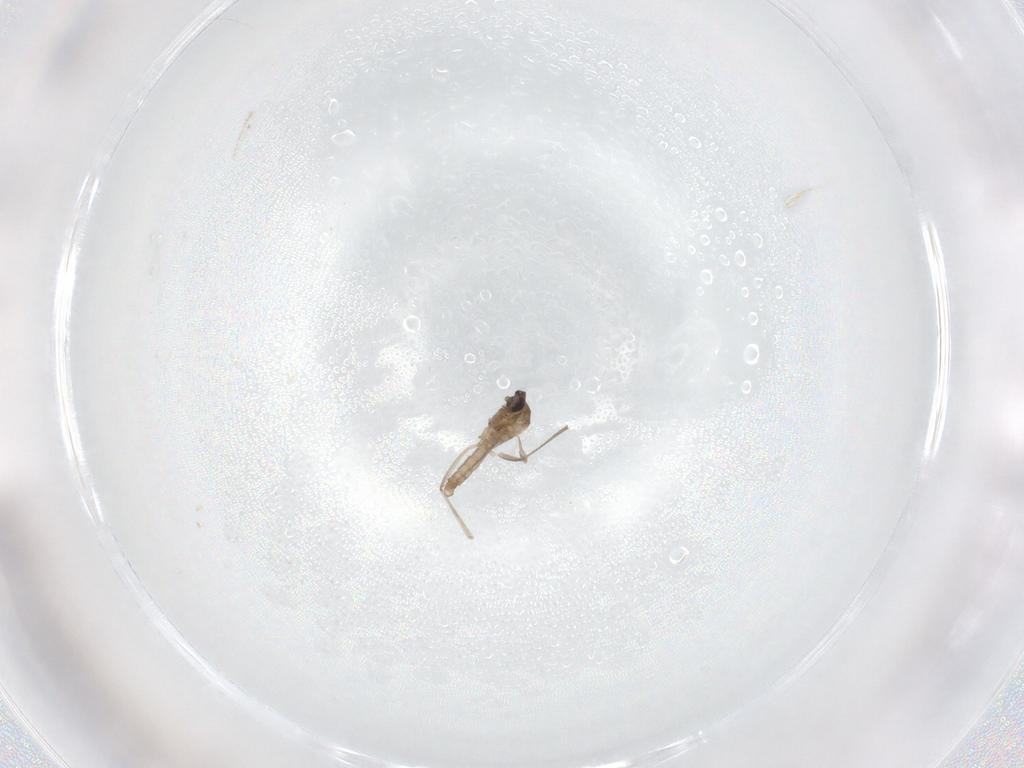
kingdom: Animalia
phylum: Arthropoda
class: Insecta
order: Diptera
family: Cecidomyiidae
